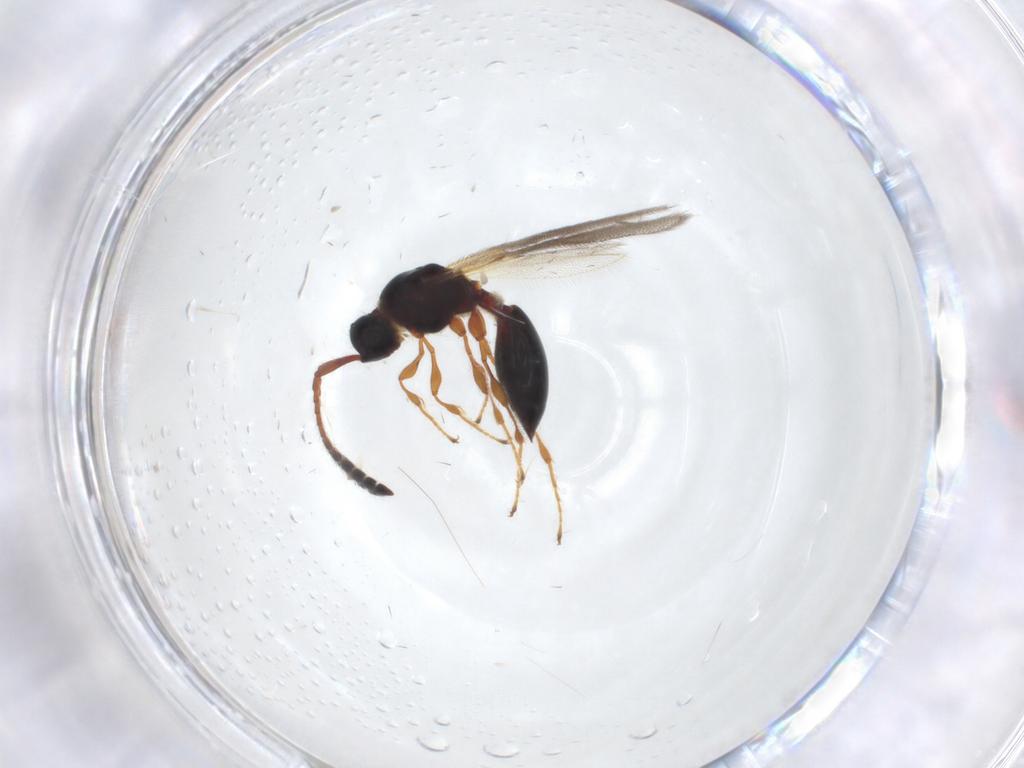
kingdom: Animalia
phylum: Arthropoda
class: Insecta
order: Hymenoptera
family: Diapriidae
